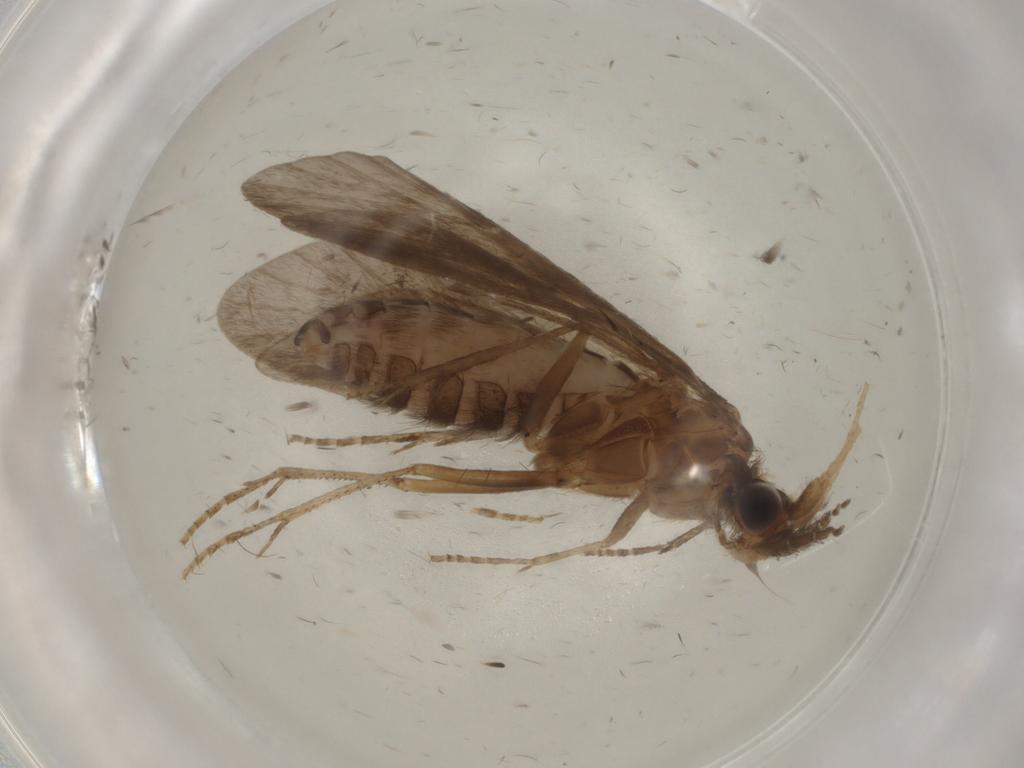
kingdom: Animalia
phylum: Arthropoda
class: Insecta
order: Trichoptera
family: Helicopsychidae
